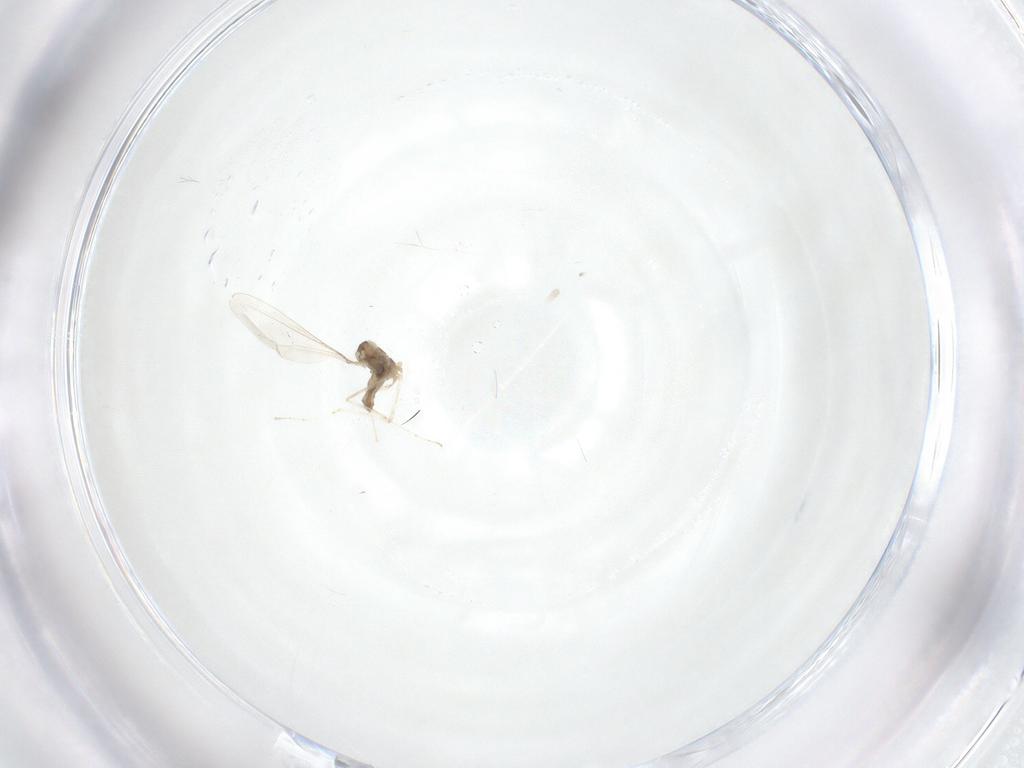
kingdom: Animalia
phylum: Arthropoda
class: Insecta
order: Diptera
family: Cecidomyiidae
